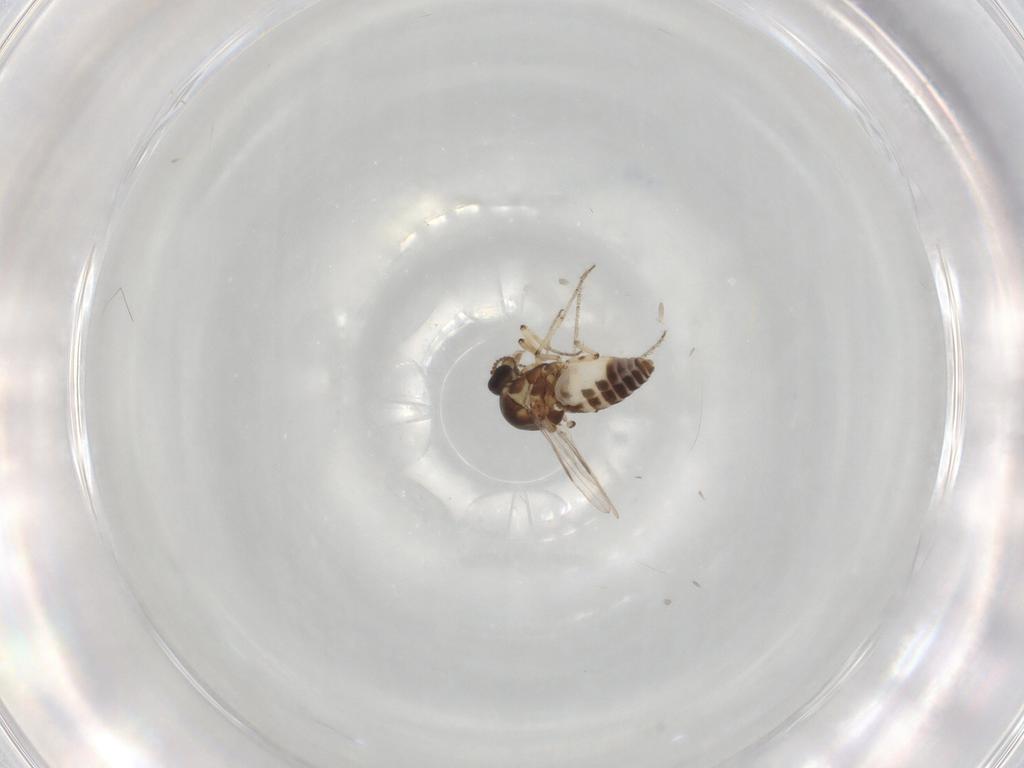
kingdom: Animalia
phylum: Arthropoda
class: Insecta
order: Diptera
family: Ceratopogonidae
